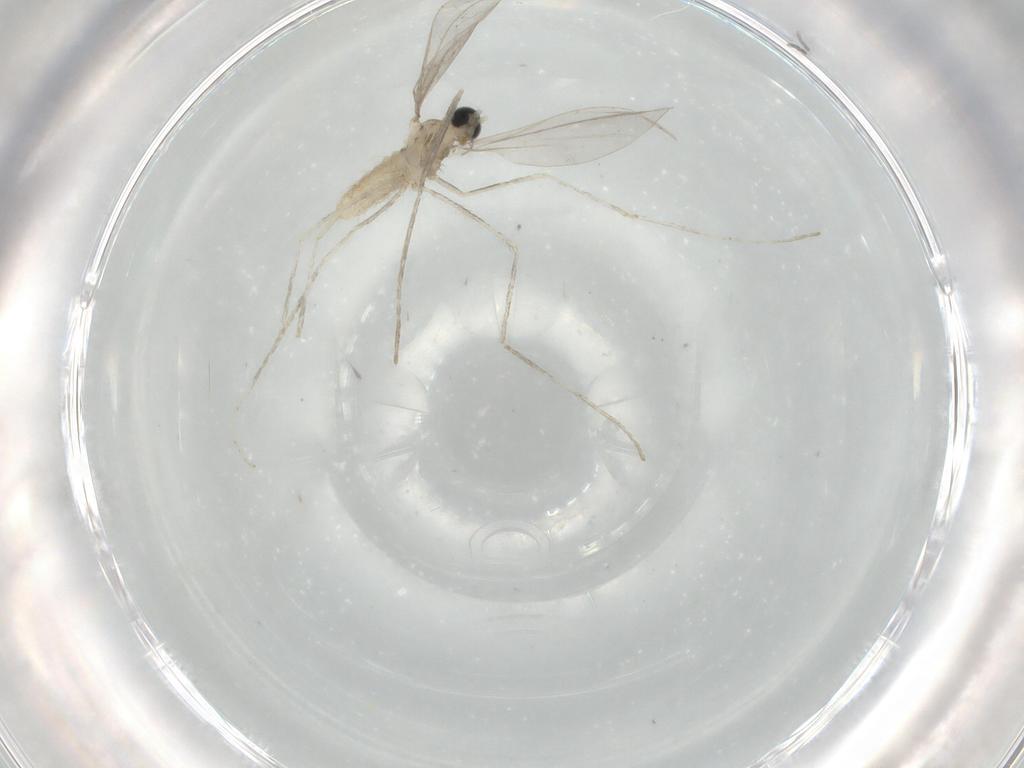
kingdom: Animalia
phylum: Arthropoda
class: Insecta
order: Diptera
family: Cecidomyiidae
